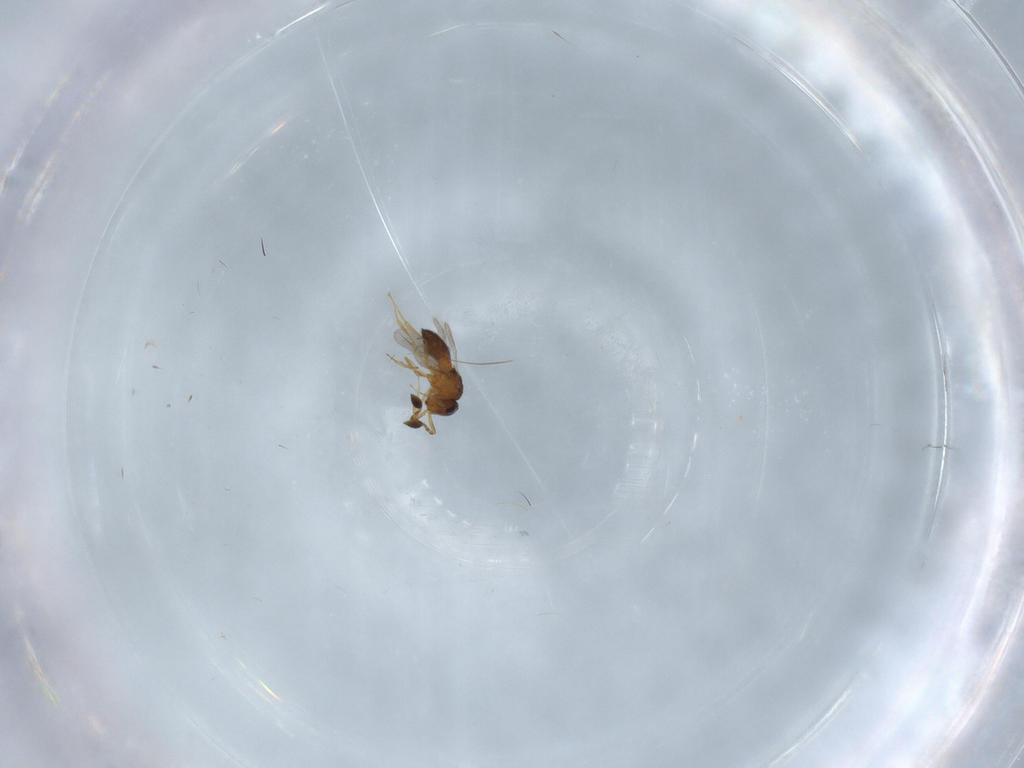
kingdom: Animalia
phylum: Arthropoda
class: Insecta
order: Hymenoptera
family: Scelionidae
